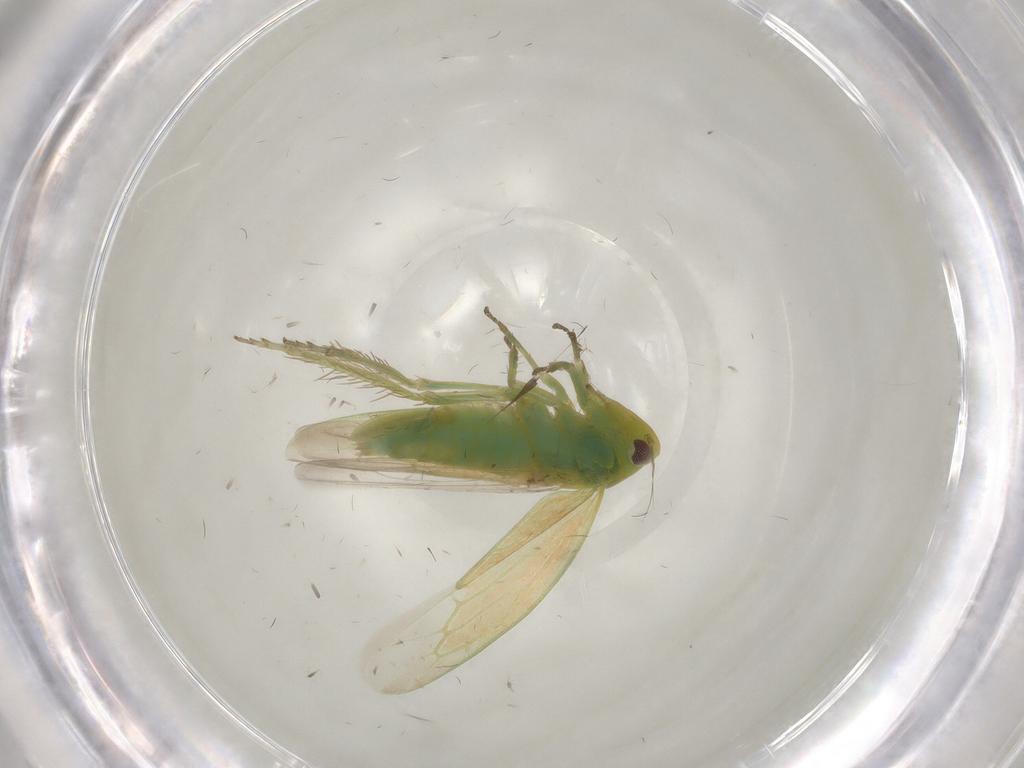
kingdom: Animalia
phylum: Arthropoda
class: Insecta
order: Hemiptera
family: Cicadellidae
